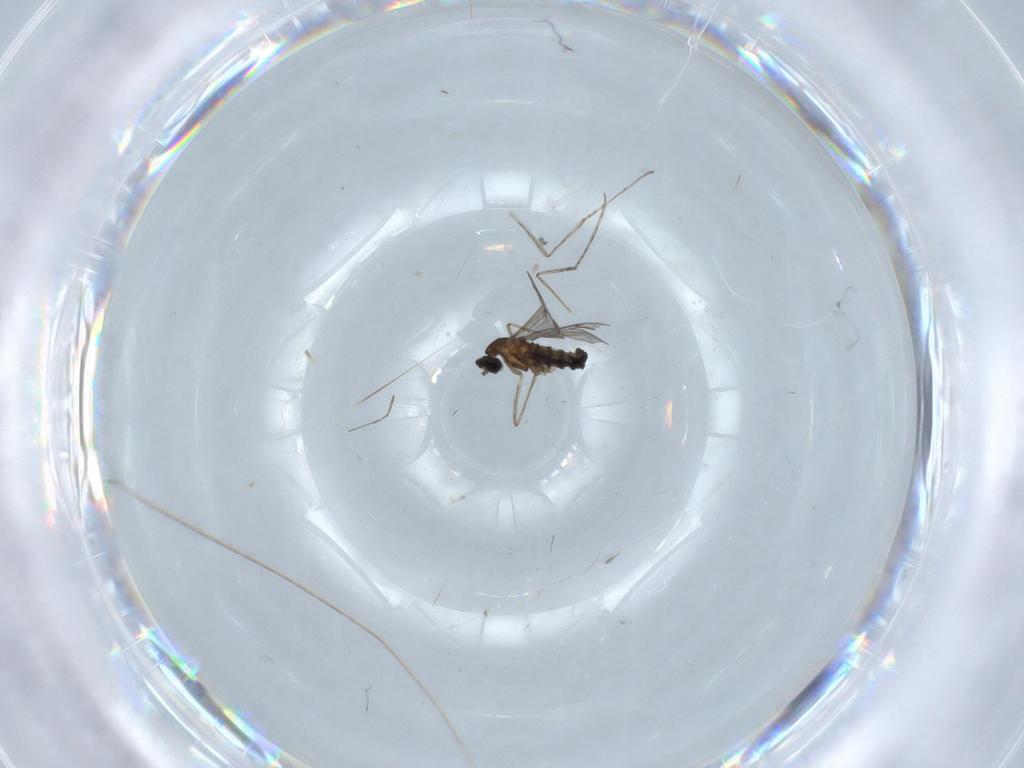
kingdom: Animalia
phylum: Arthropoda
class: Insecta
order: Diptera
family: Cecidomyiidae
